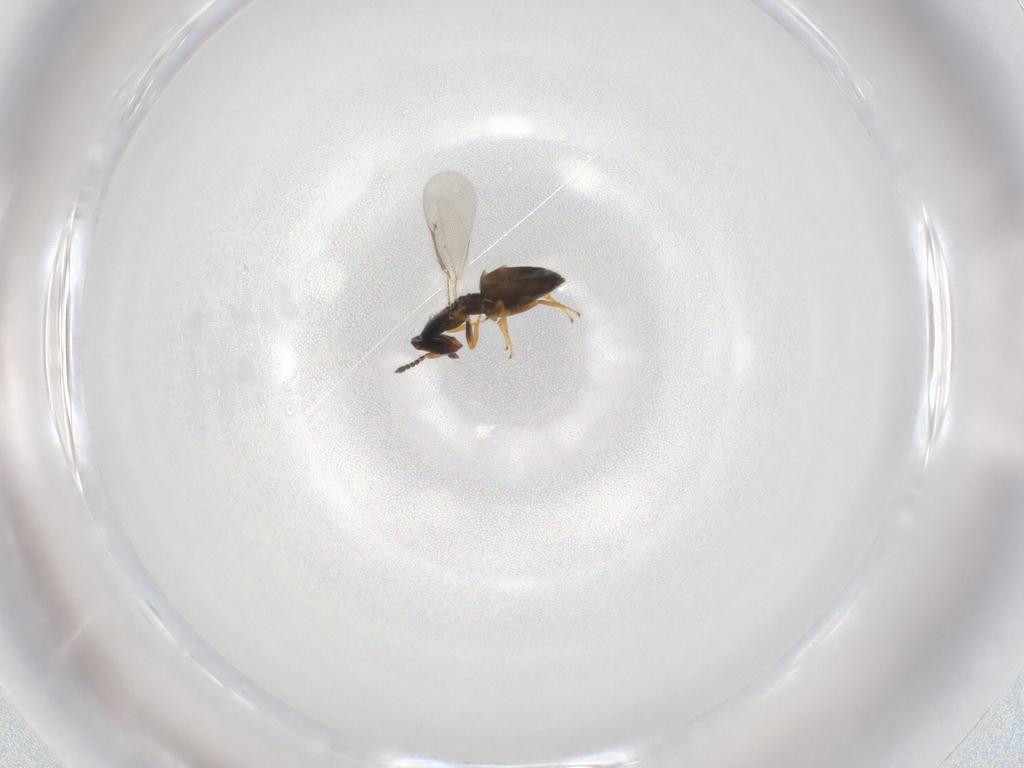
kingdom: Animalia
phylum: Arthropoda
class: Insecta
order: Hymenoptera
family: Eulophidae
